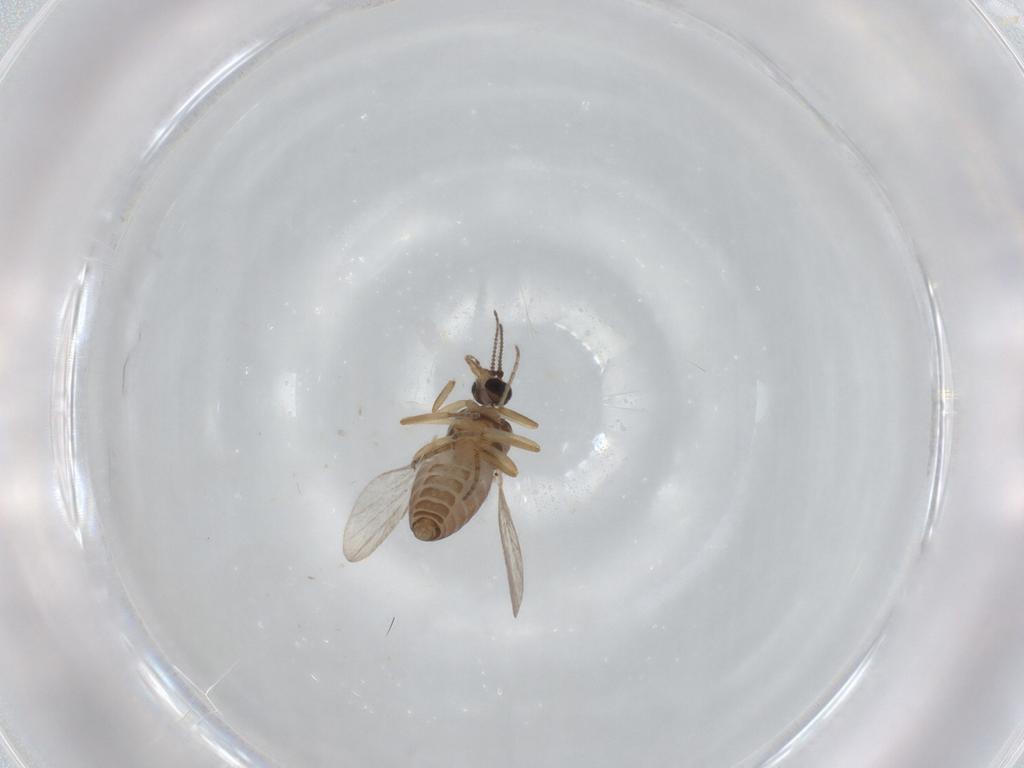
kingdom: Animalia
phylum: Arthropoda
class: Insecta
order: Diptera
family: Ceratopogonidae
